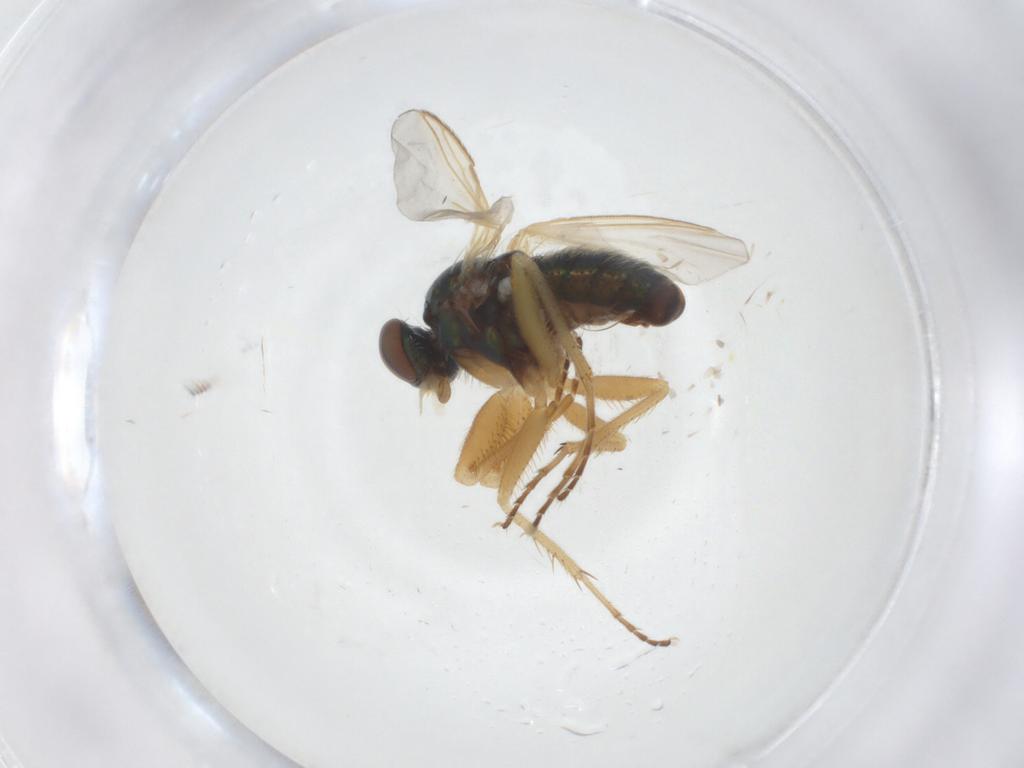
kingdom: Animalia
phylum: Arthropoda
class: Insecta
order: Diptera
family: Dolichopodidae
